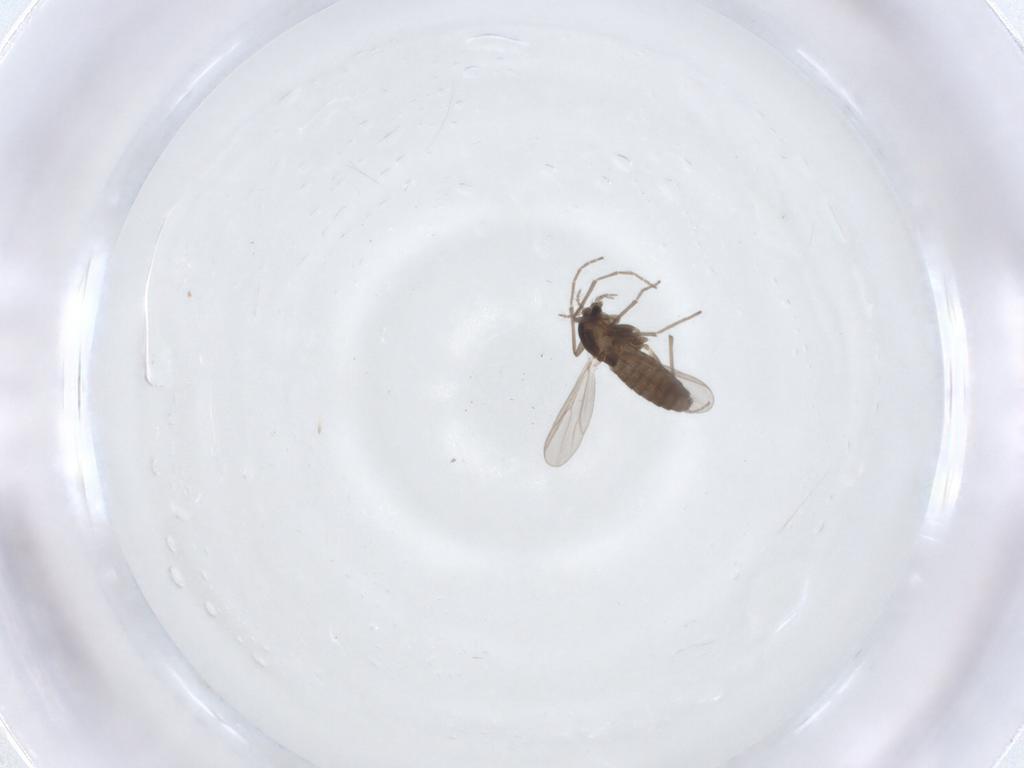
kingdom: Animalia
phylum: Arthropoda
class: Insecta
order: Diptera
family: Chironomidae
